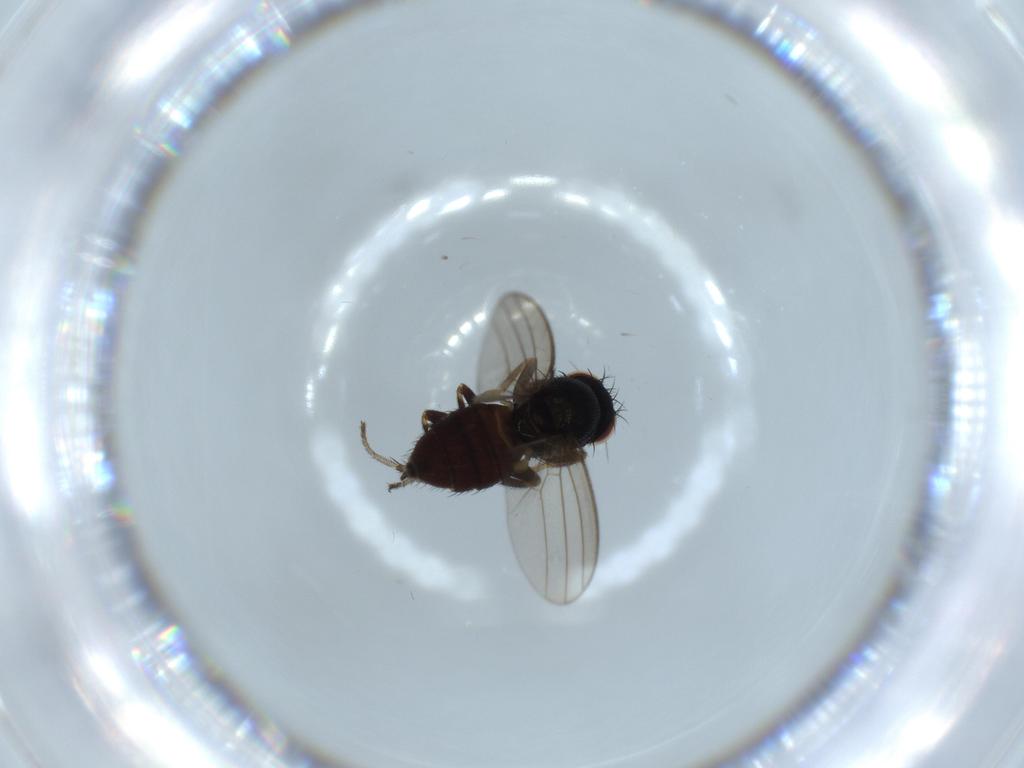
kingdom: Animalia
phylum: Arthropoda
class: Insecta
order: Diptera
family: Milichiidae
